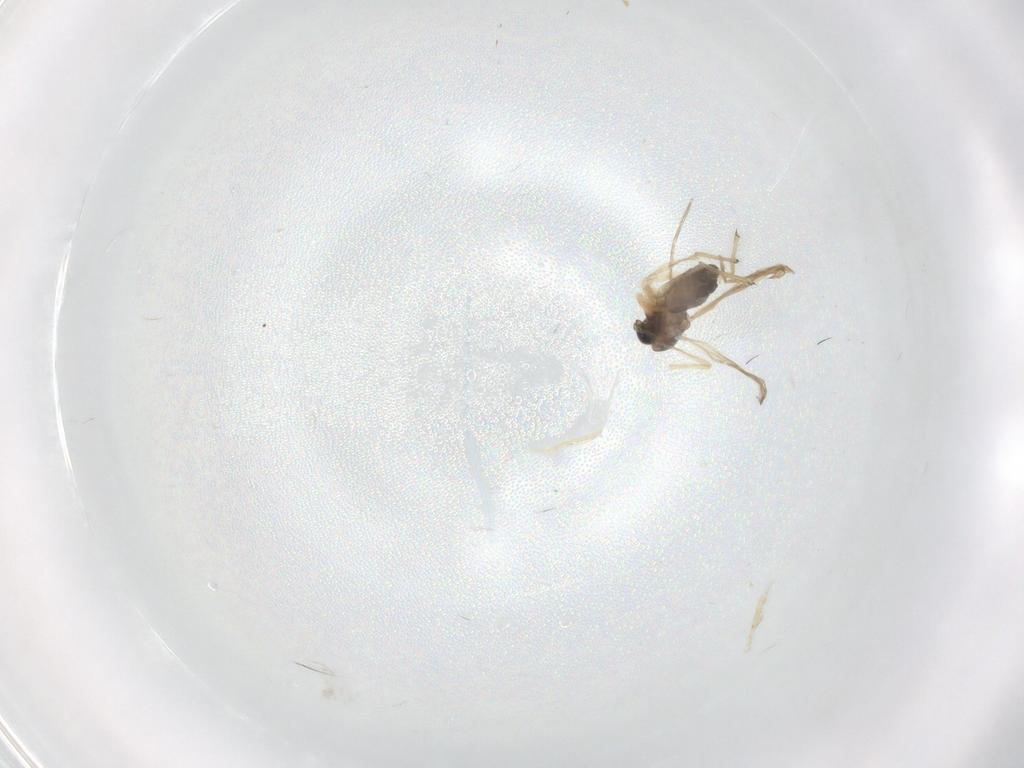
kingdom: Animalia
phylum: Arthropoda
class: Insecta
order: Diptera
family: Chironomidae
